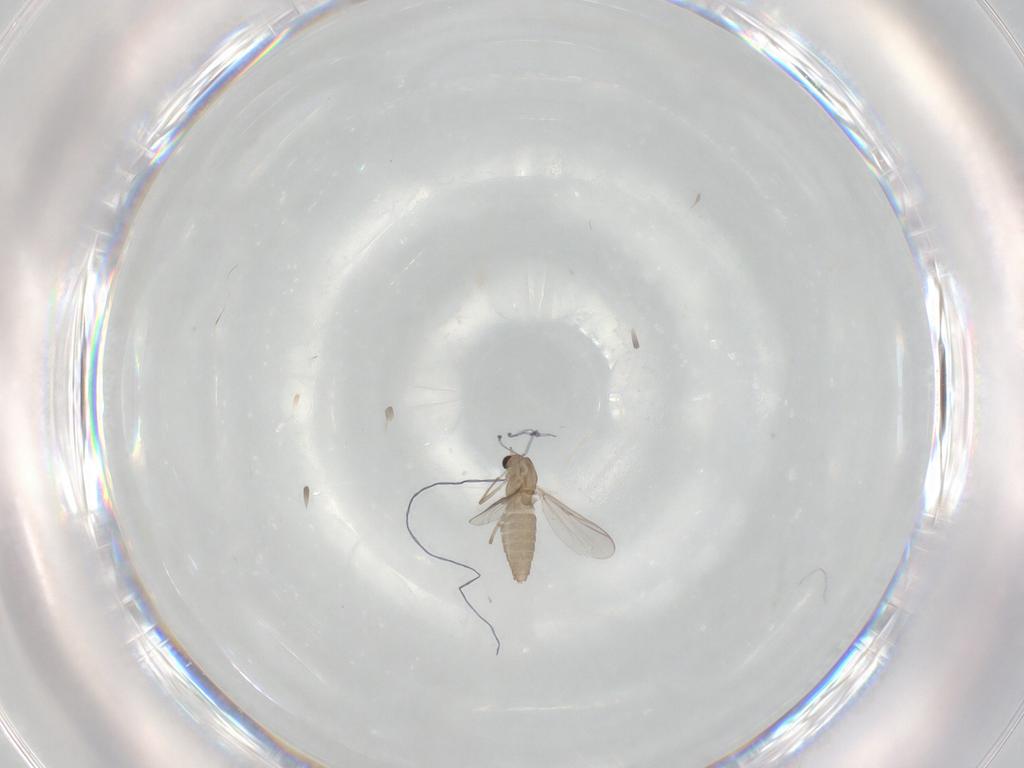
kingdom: Animalia
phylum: Arthropoda
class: Insecta
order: Diptera
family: Chironomidae
